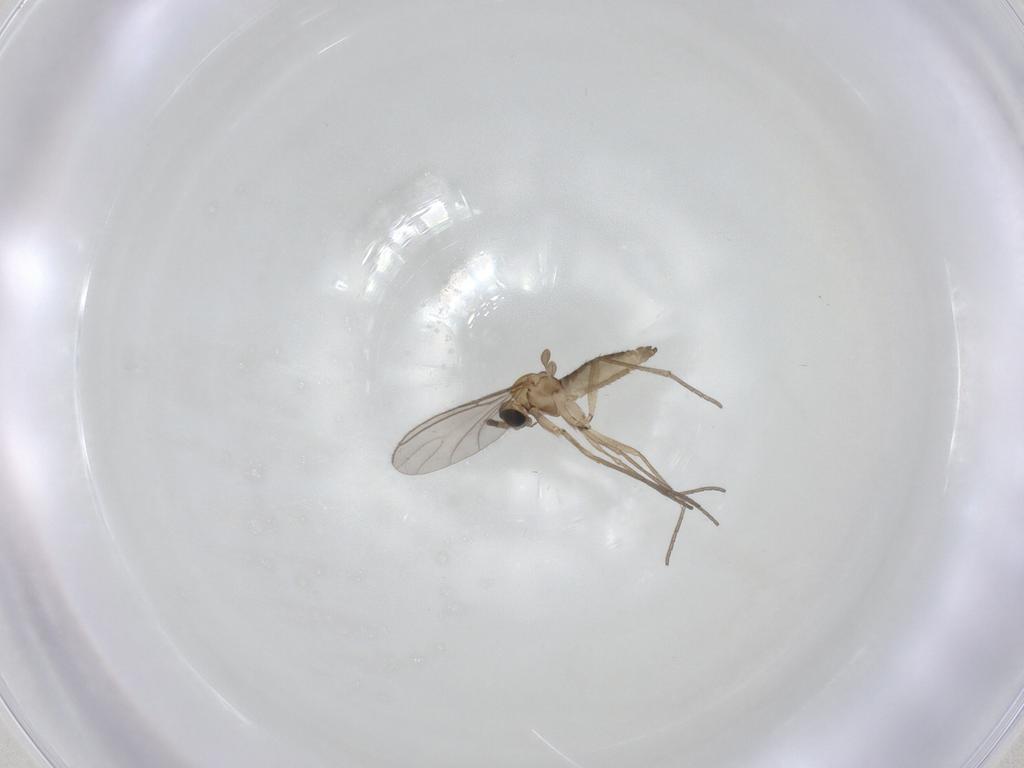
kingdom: Animalia
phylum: Arthropoda
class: Insecta
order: Diptera
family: Sciaridae
